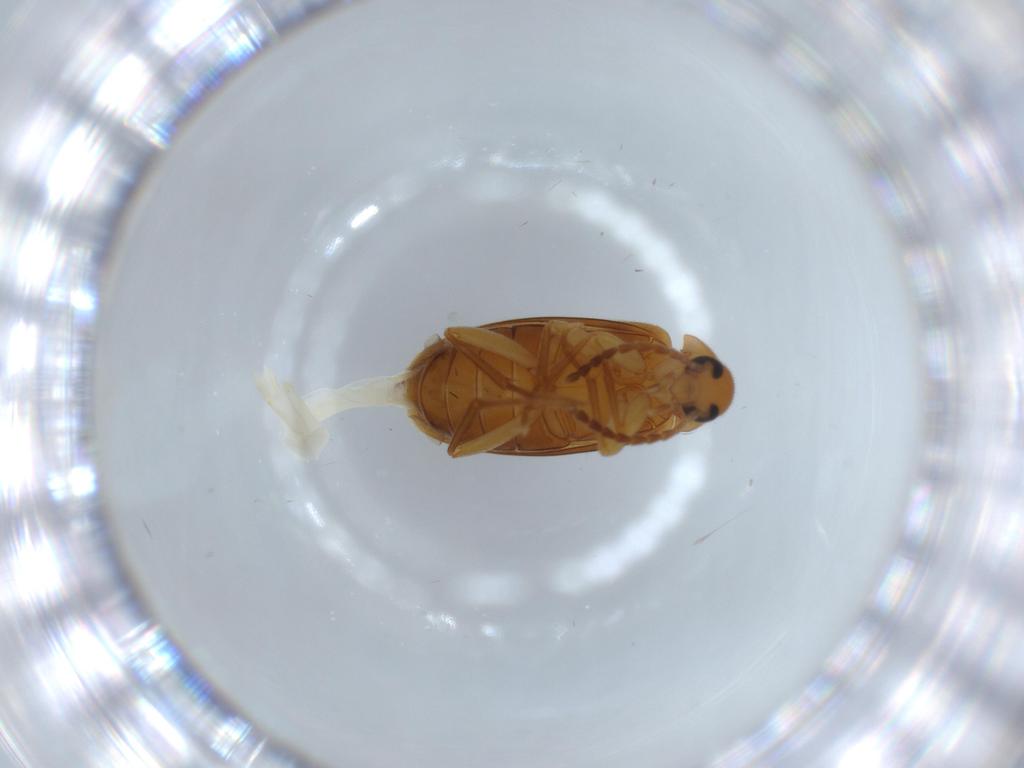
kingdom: Animalia
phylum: Arthropoda
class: Insecta
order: Coleoptera
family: Scraptiidae
